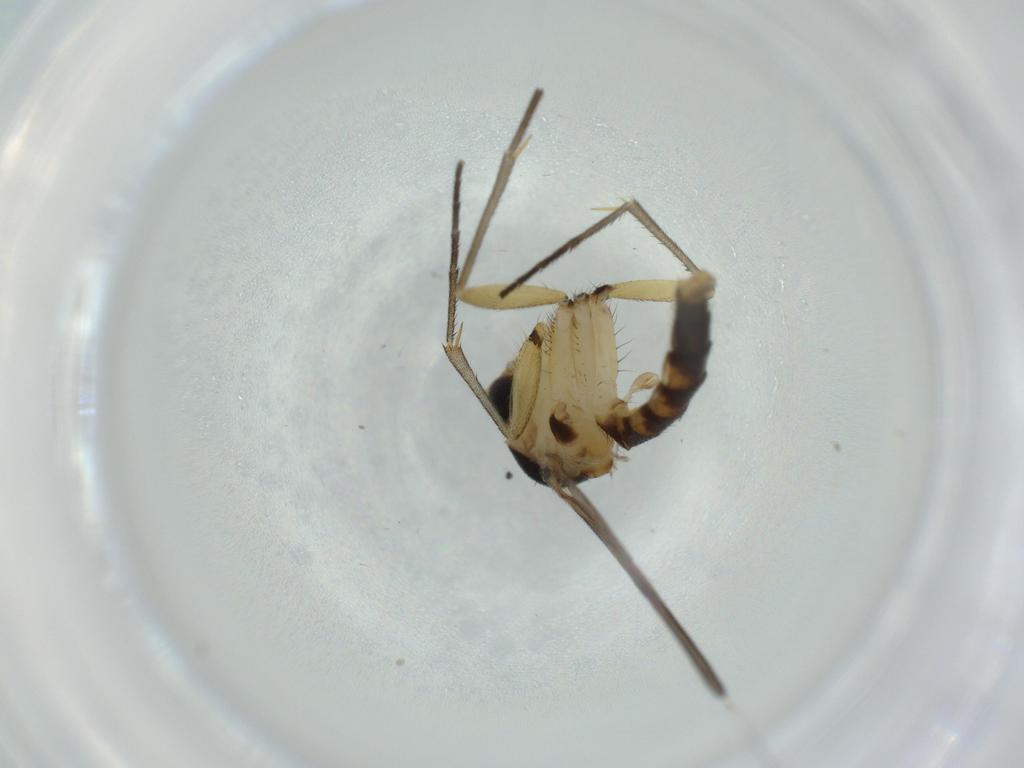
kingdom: Animalia
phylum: Arthropoda
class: Insecta
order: Diptera
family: Mycetophilidae
